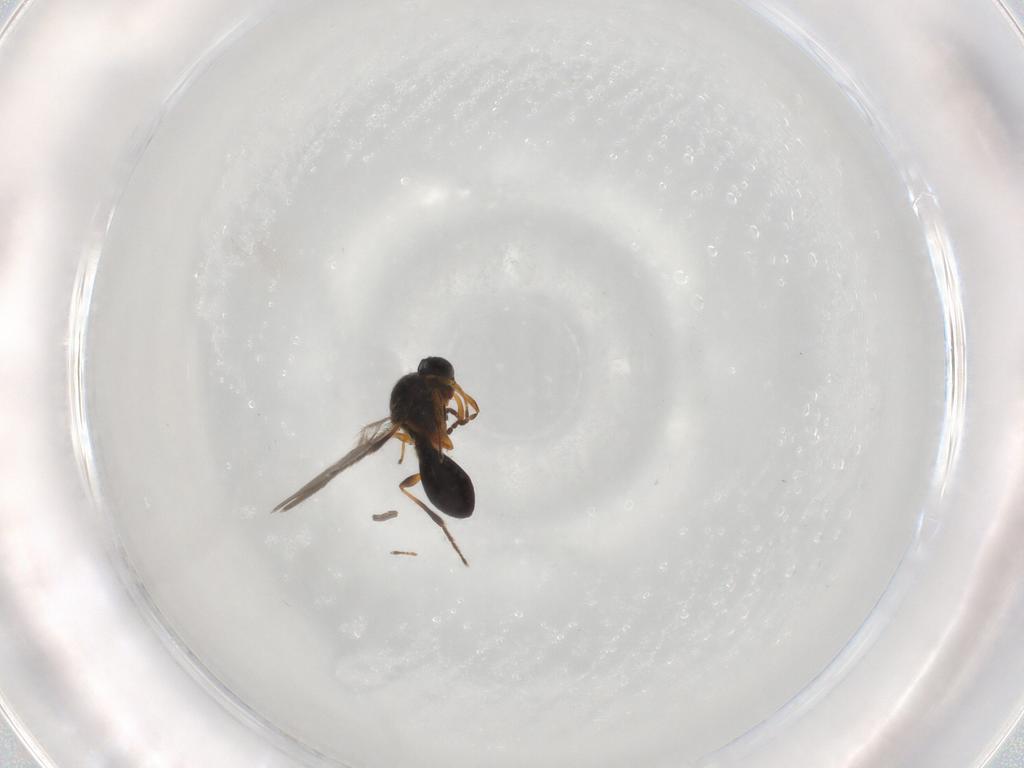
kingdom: Animalia
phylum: Arthropoda
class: Insecta
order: Hymenoptera
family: Platygastridae
